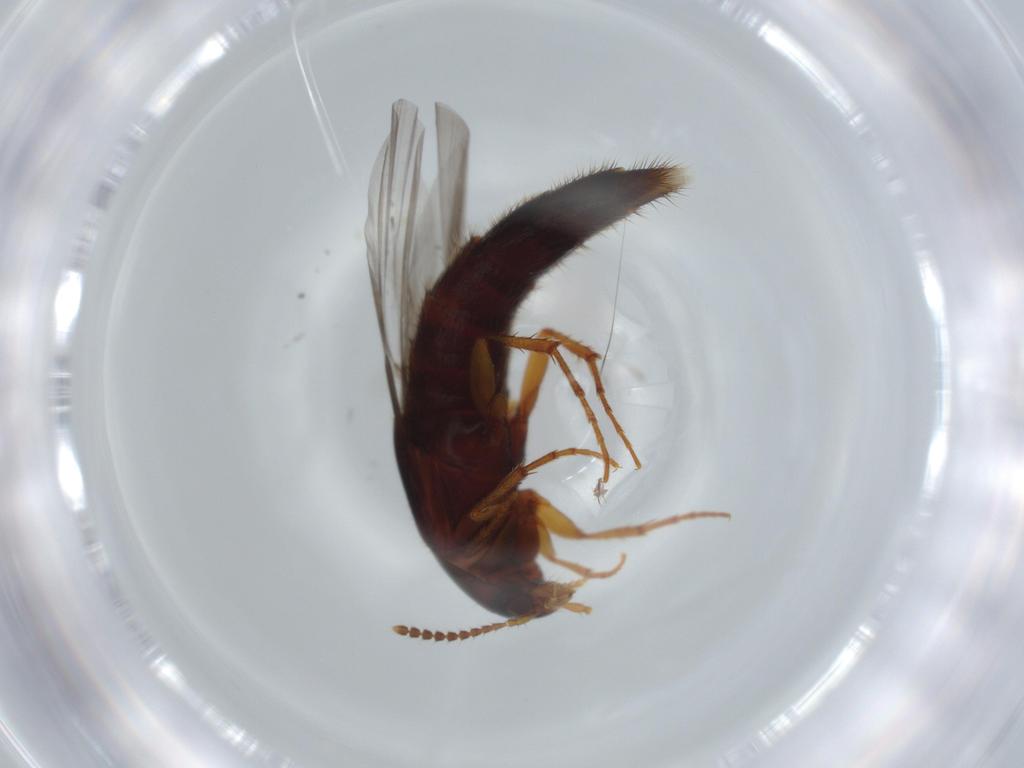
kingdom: Animalia
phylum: Arthropoda
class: Insecta
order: Coleoptera
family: Staphylinidae
